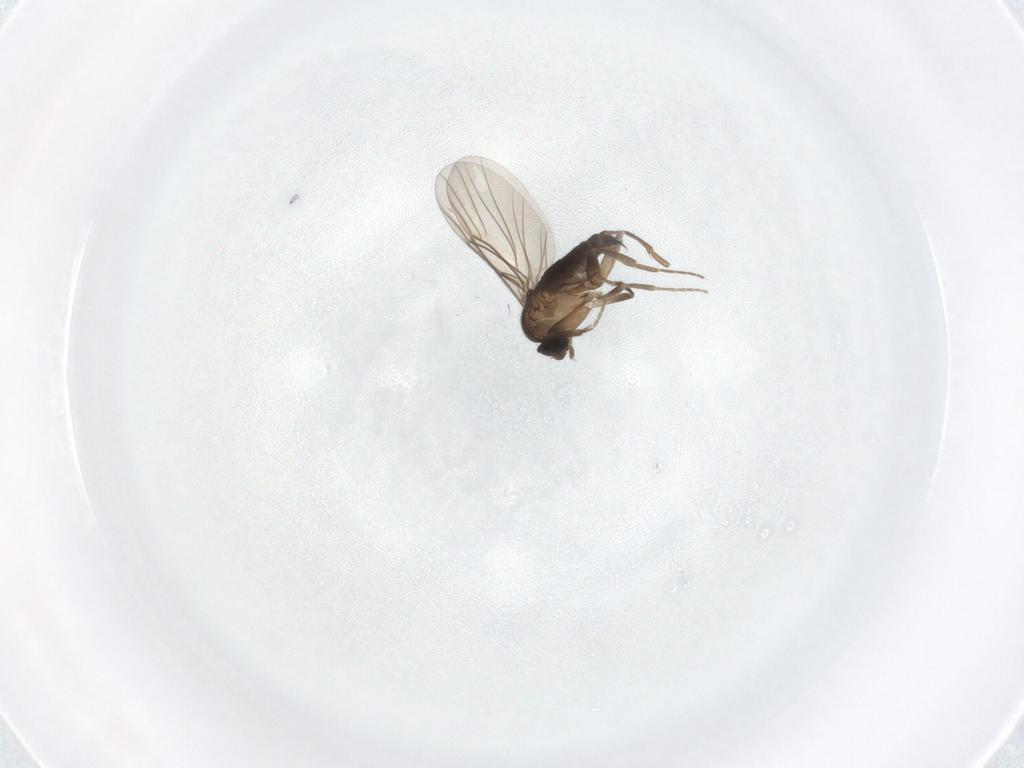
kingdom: Animalia
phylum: Arthropoda
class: Insecta
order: Diptera
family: Phoridae
